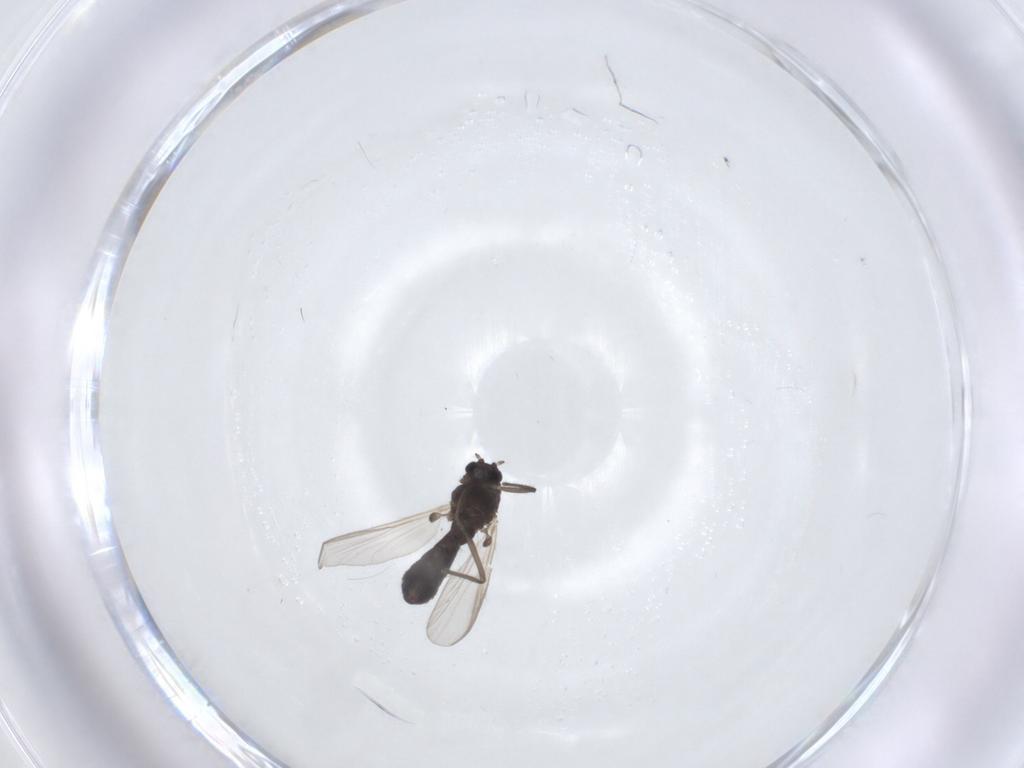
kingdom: Animalia
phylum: Arthropoda
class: Insecta
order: Diptera
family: Chironomidae
